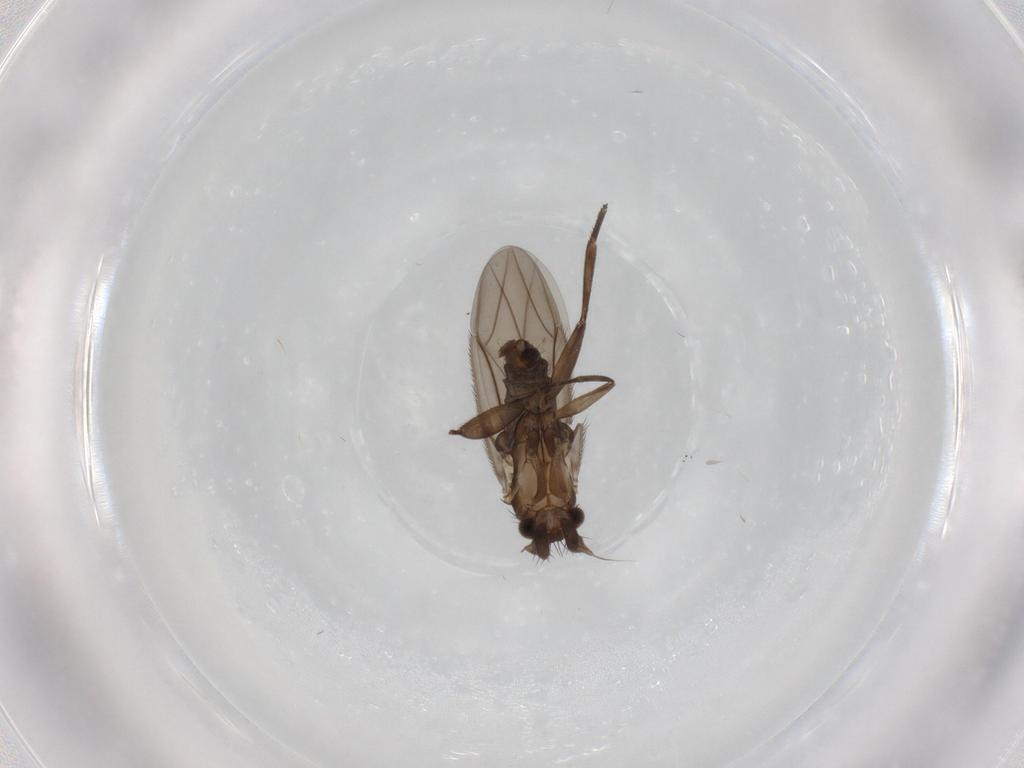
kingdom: Animalia
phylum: Arthropoda
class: Insecta
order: Diptera
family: Phoridae
